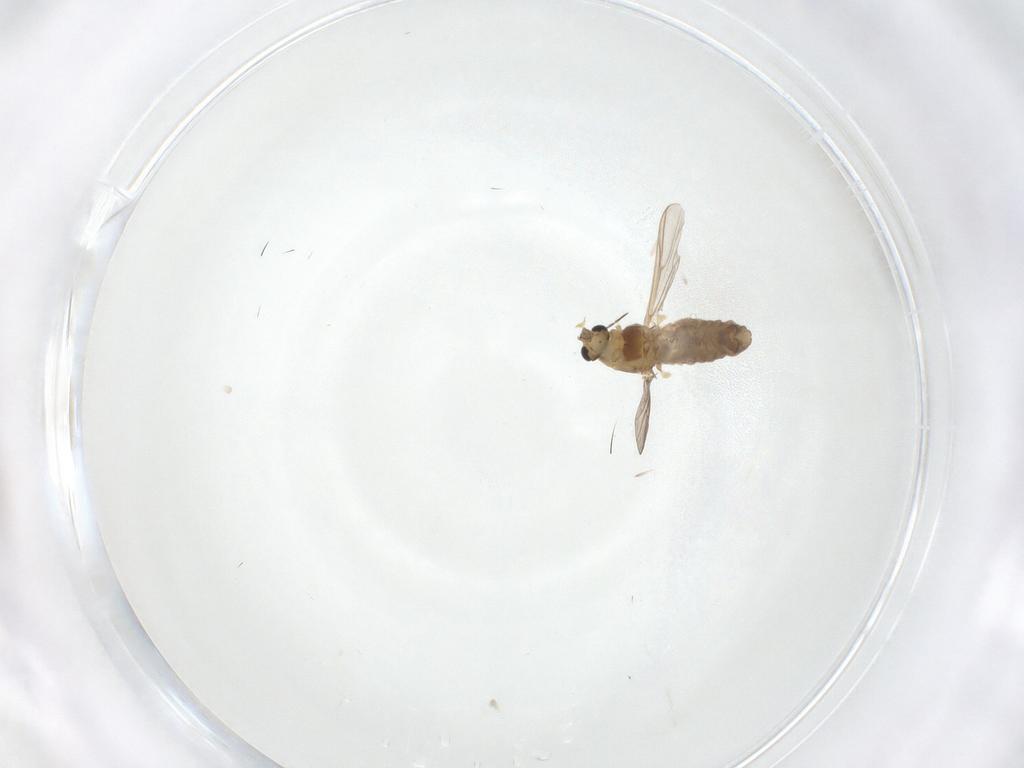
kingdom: Animalia
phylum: Arthropoda
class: Insecta
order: Diptera
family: Chironomidae
